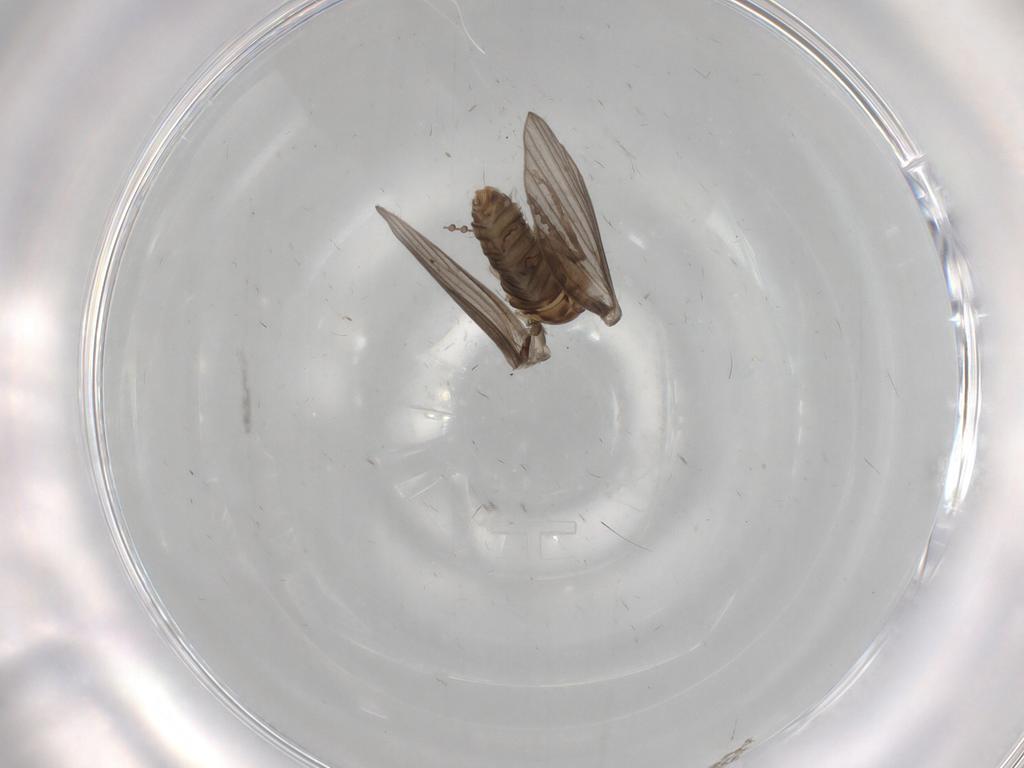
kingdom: Animalia
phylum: Arthropoda
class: Insecta
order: Diptera
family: Psychodidae
